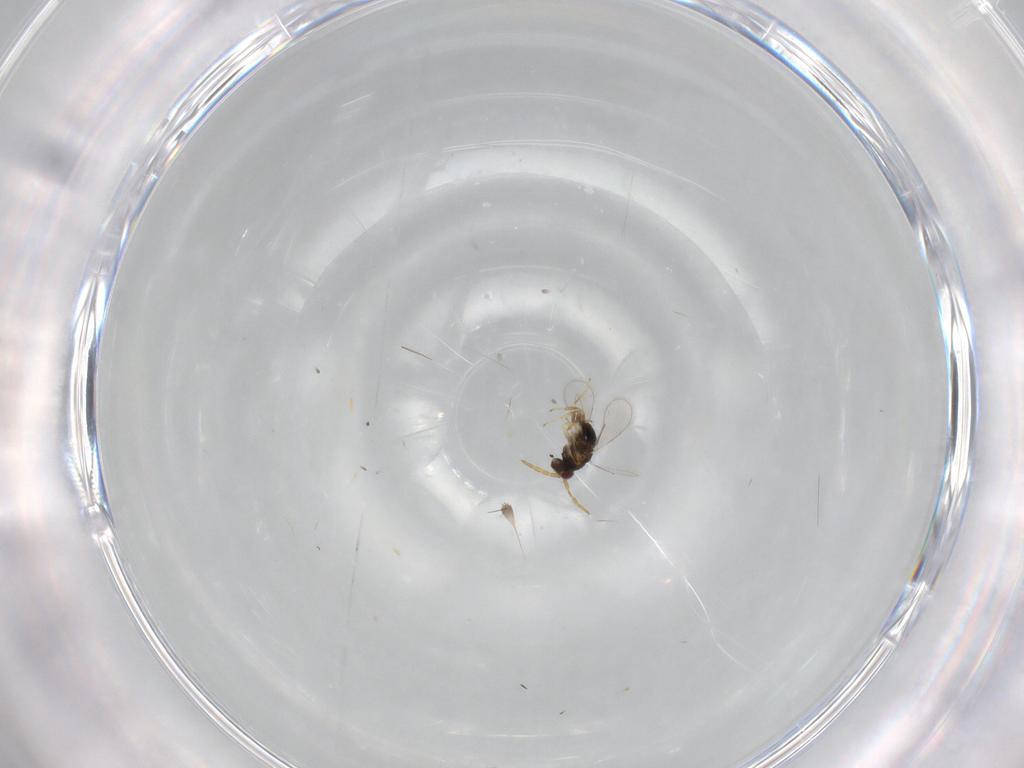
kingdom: Animalia
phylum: Arthropoda
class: Insecta
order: Hymenoptera
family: Aphelinidae
